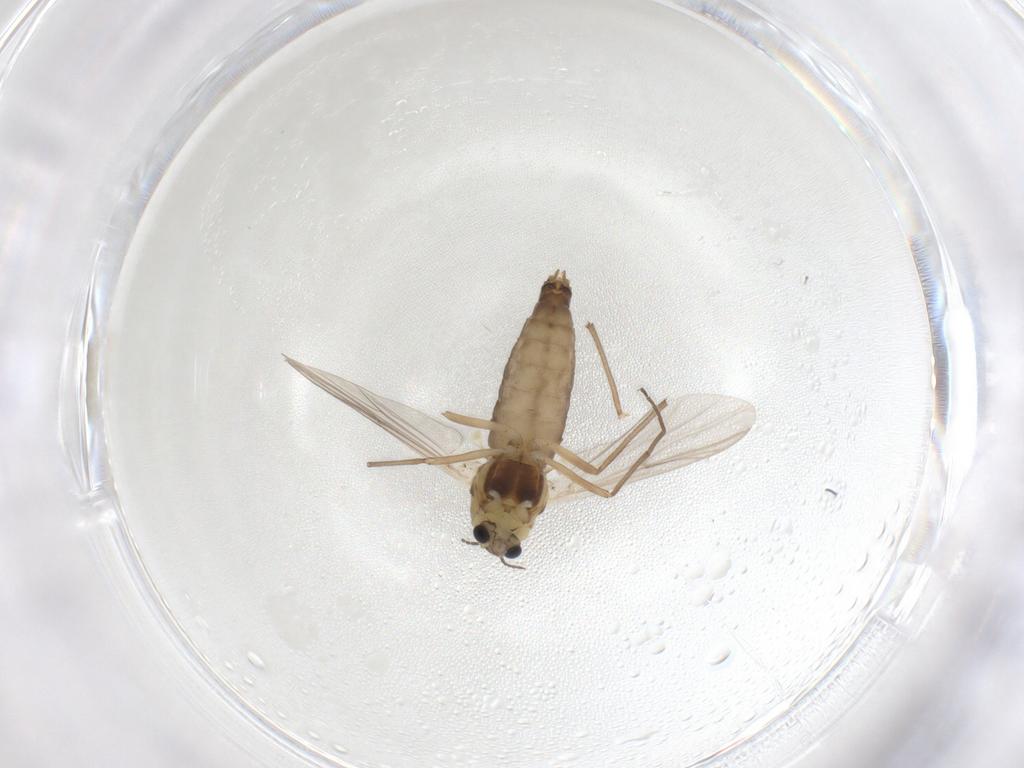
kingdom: Animalia
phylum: Arthropoda
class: Insecta
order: Diptera
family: Chironomidae
